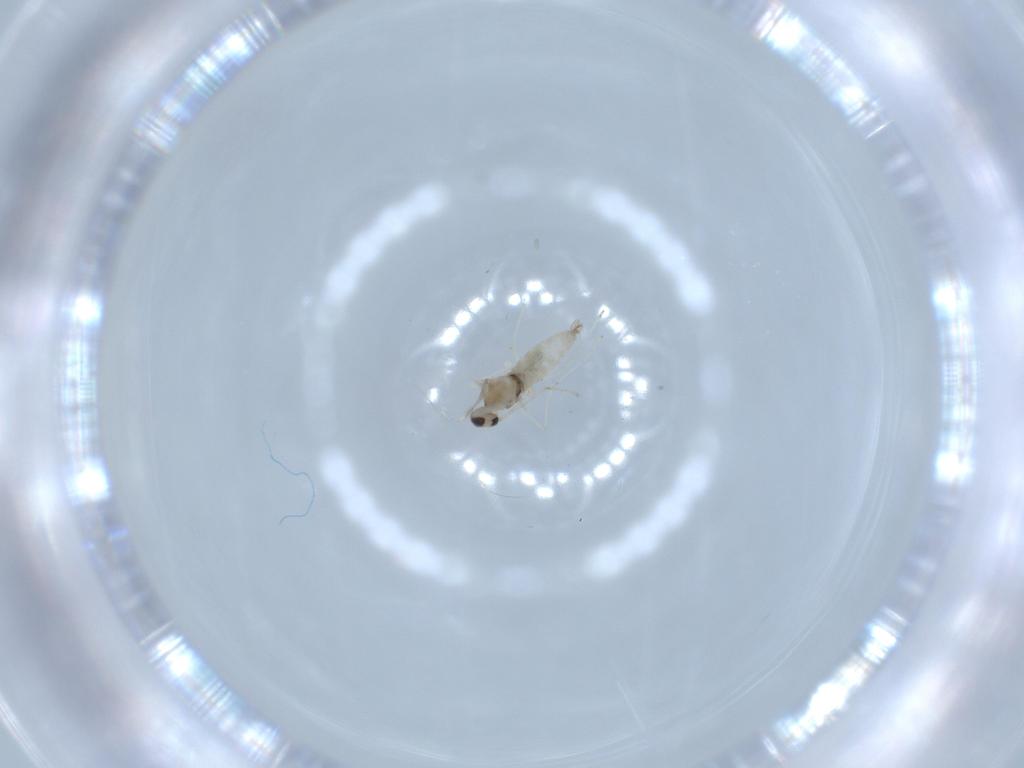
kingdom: Animalia
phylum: Arthropoda
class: Insecta
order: Diptera
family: Cecidomyiidae
